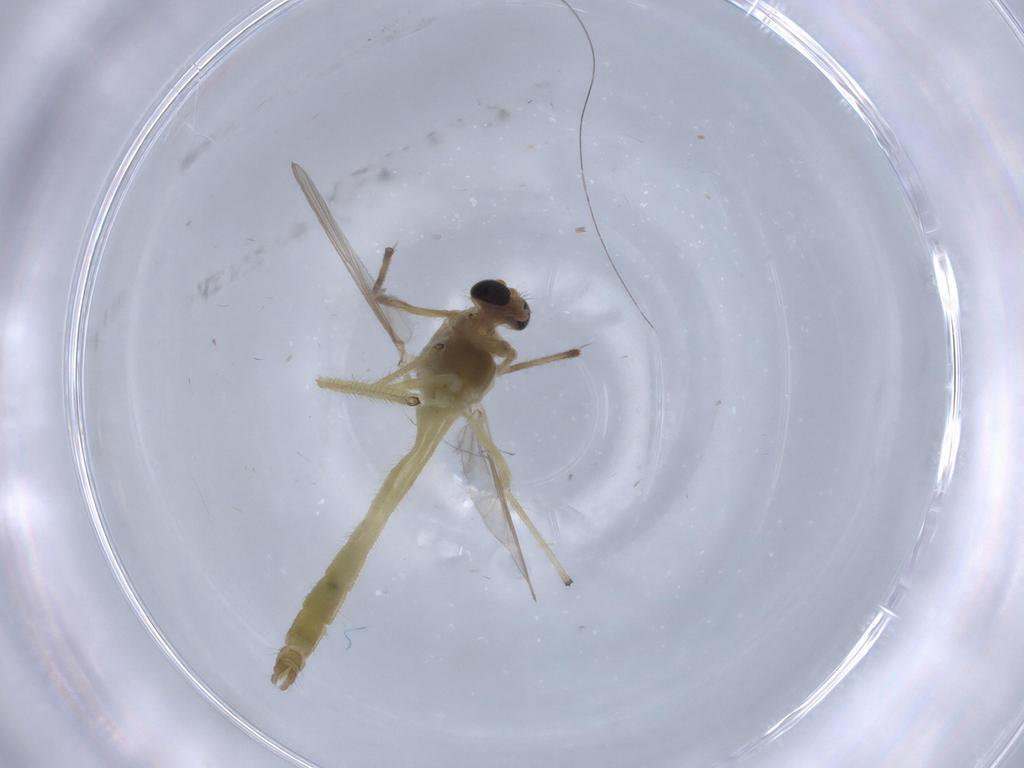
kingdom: Animalia
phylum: Arthropoda
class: Insecta
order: Diptera
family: Chironomidae
